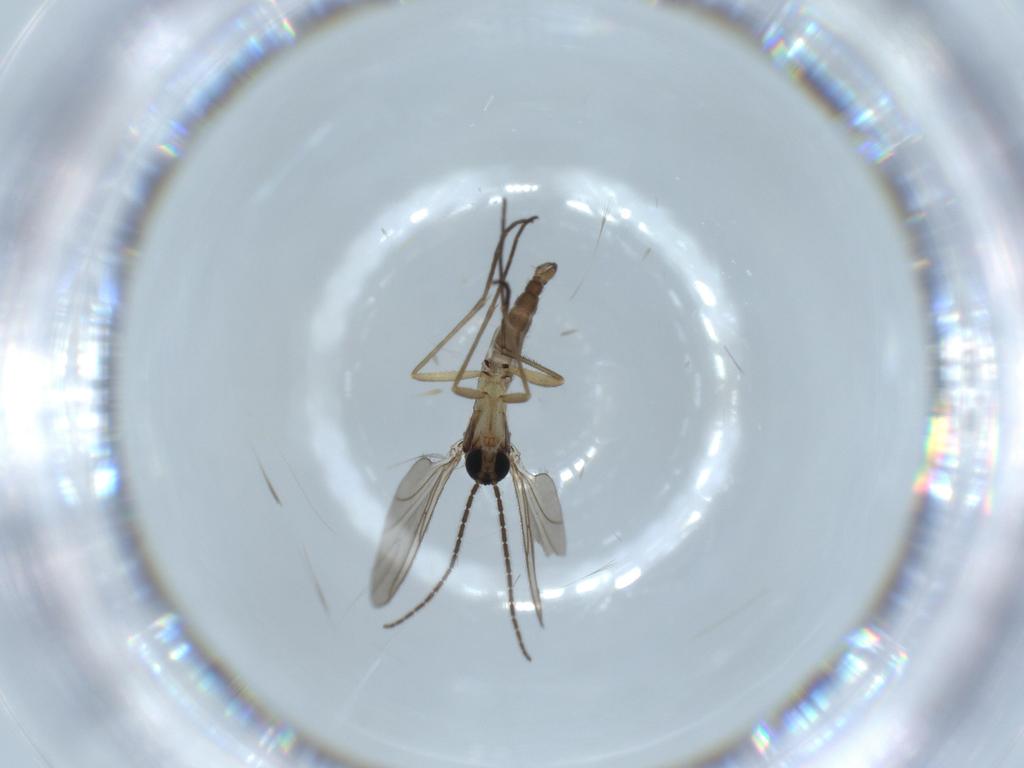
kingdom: Animalia
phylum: Arthropoda
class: Insecta
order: Diptera
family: Sciaridae
